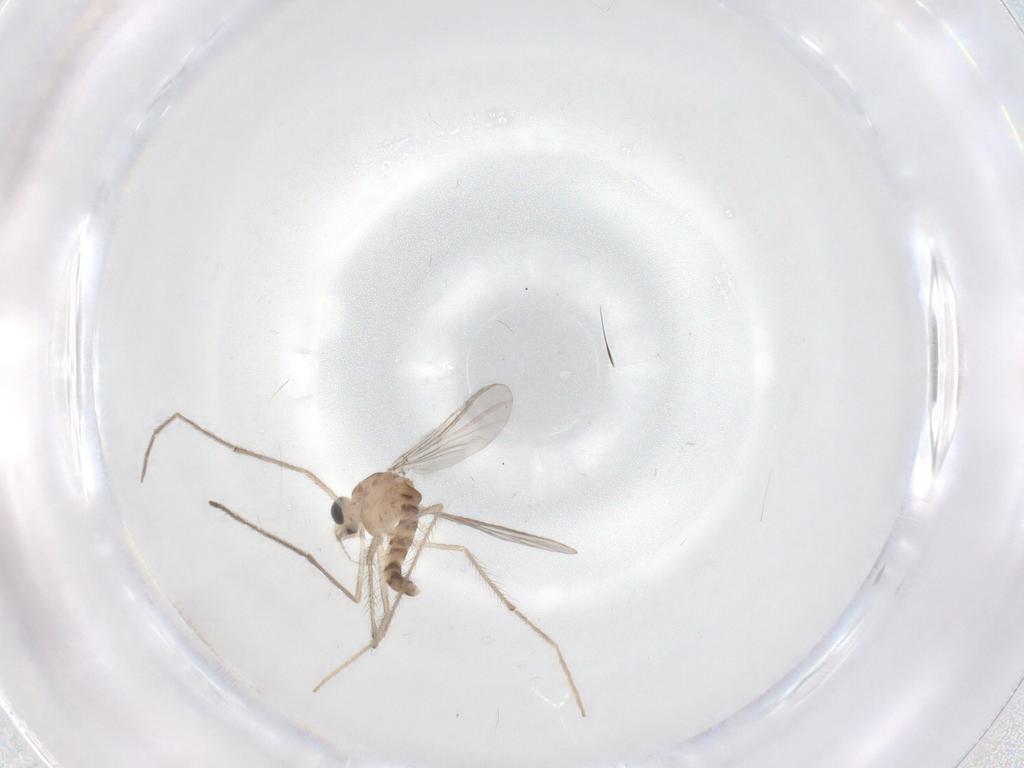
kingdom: Animalia
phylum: Arthropoda
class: Insecta
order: Diptera
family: Chironomidae
